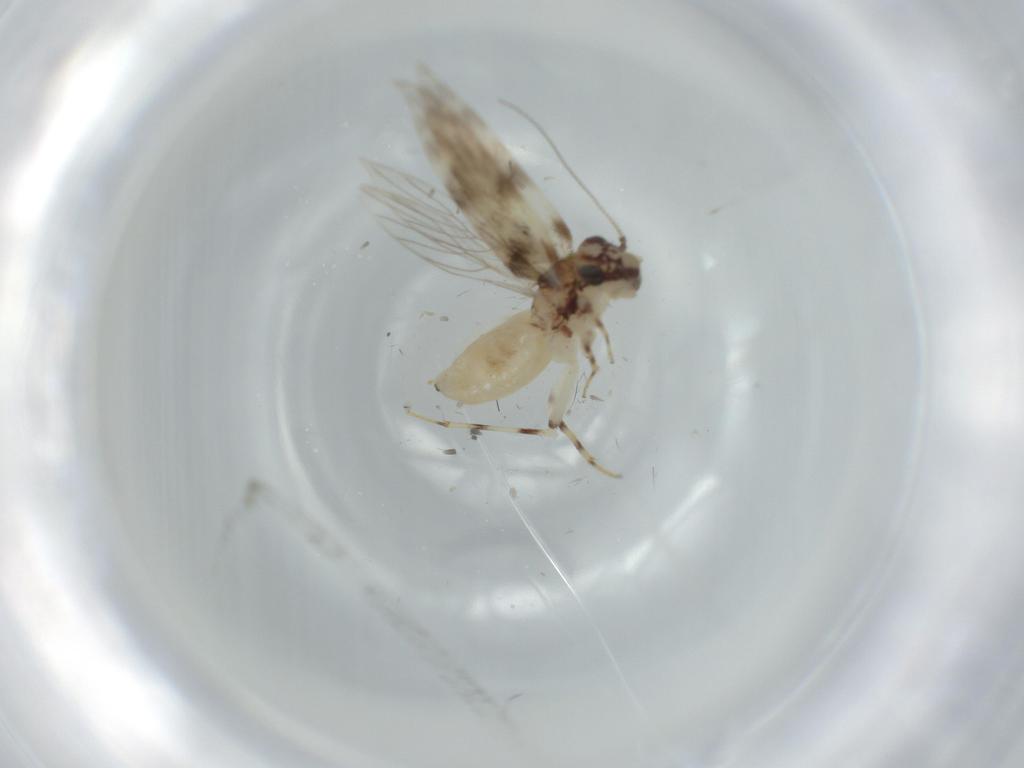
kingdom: Animalia
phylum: Arthropoda
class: Insecta
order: Psocodea
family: Lepidopsocidae
